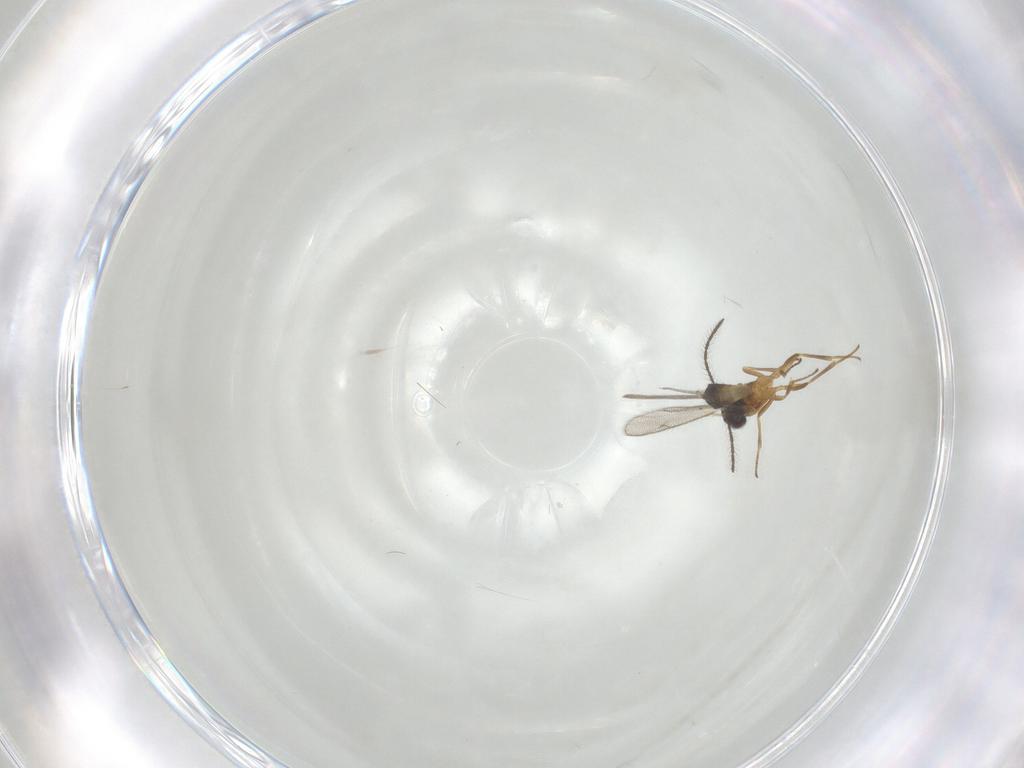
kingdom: Animalia
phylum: Arthropoda
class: Insecta
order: Hymenoptera
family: Eupelmidae
